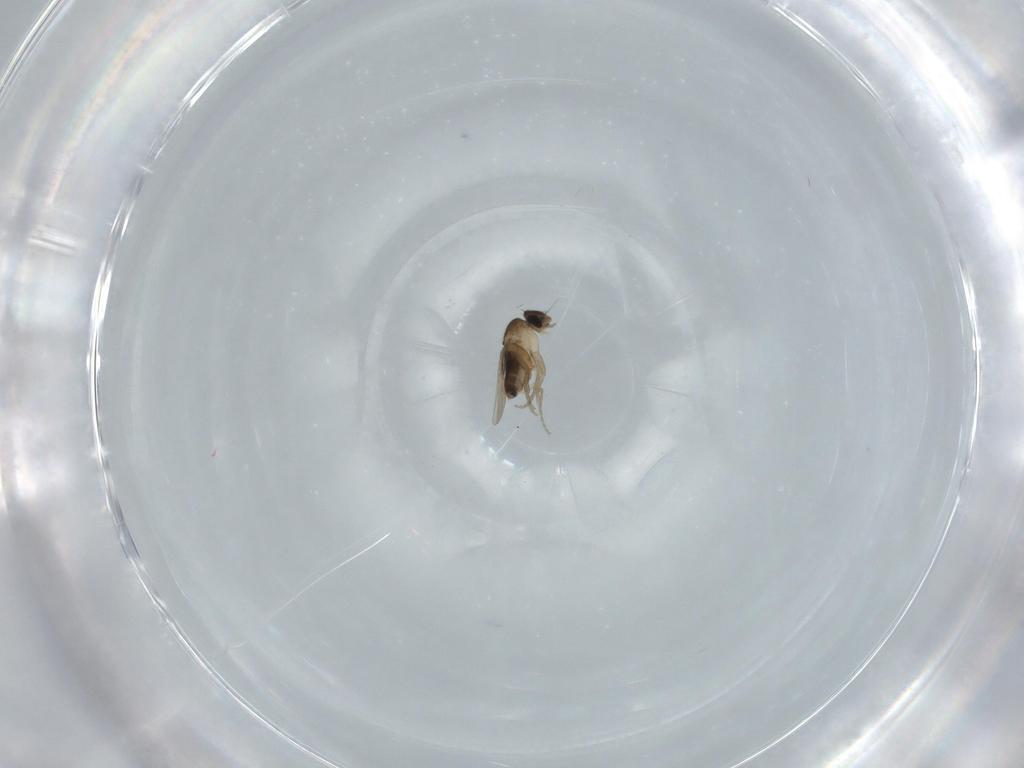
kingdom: Animalia
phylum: Arthropoda
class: Insecta
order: Diptera
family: Phoridae
